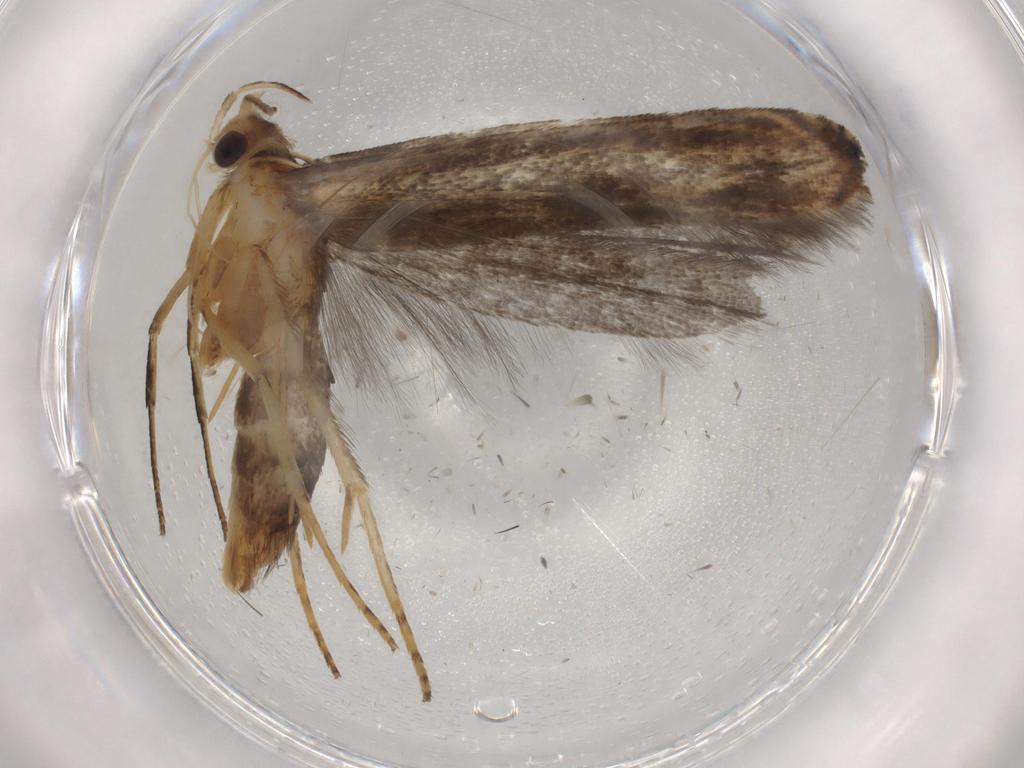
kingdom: Animalia
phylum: Arthropoda
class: Insecta
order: Lepidoptera
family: Gelechiidae
